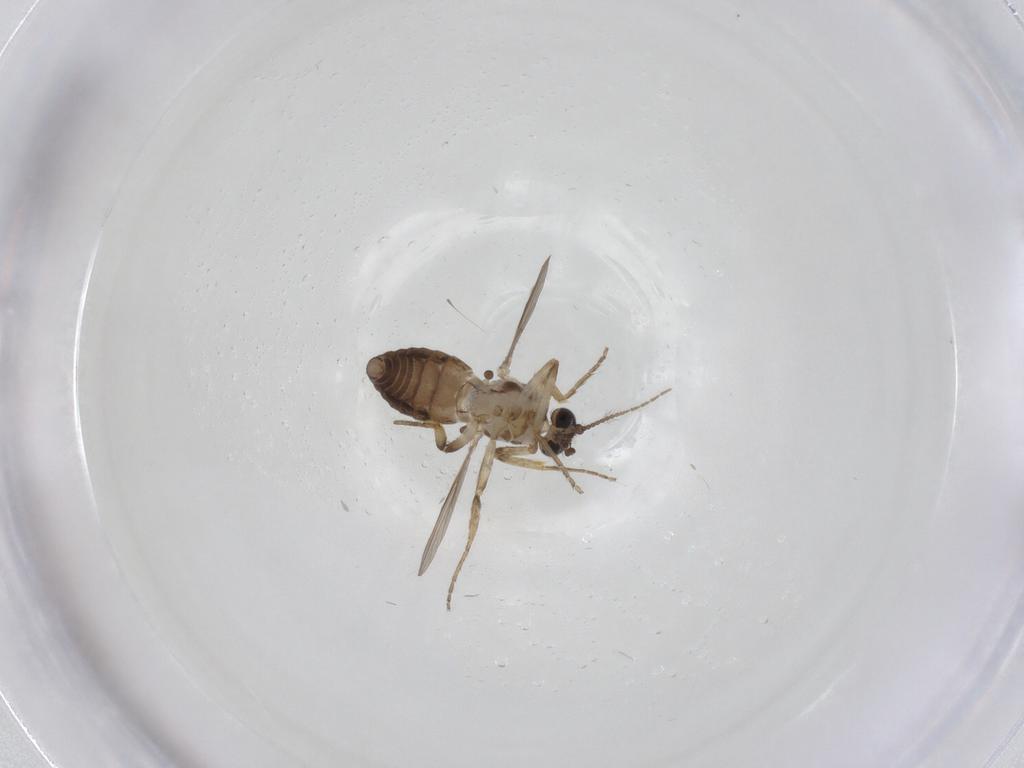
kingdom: Animalia
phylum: Arthropoda
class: Insecta
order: Diptera
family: Ceratopogonidae
